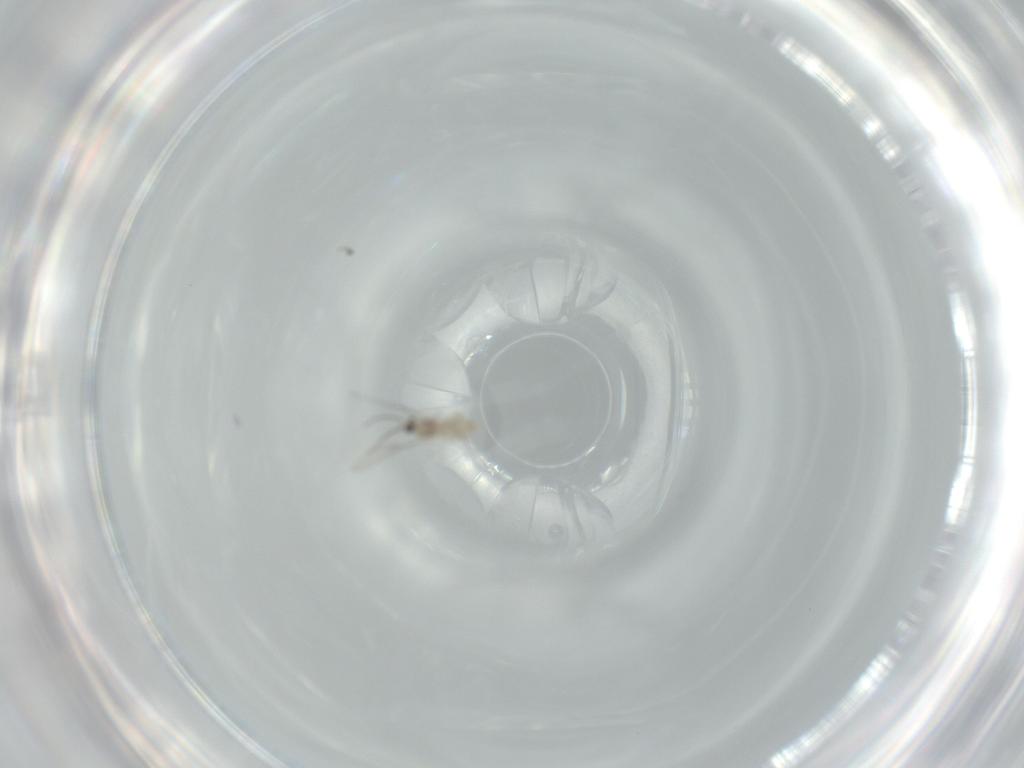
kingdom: Animalia
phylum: Arthropoda
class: Insecta
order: Diptera
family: Cecidomyiidae
